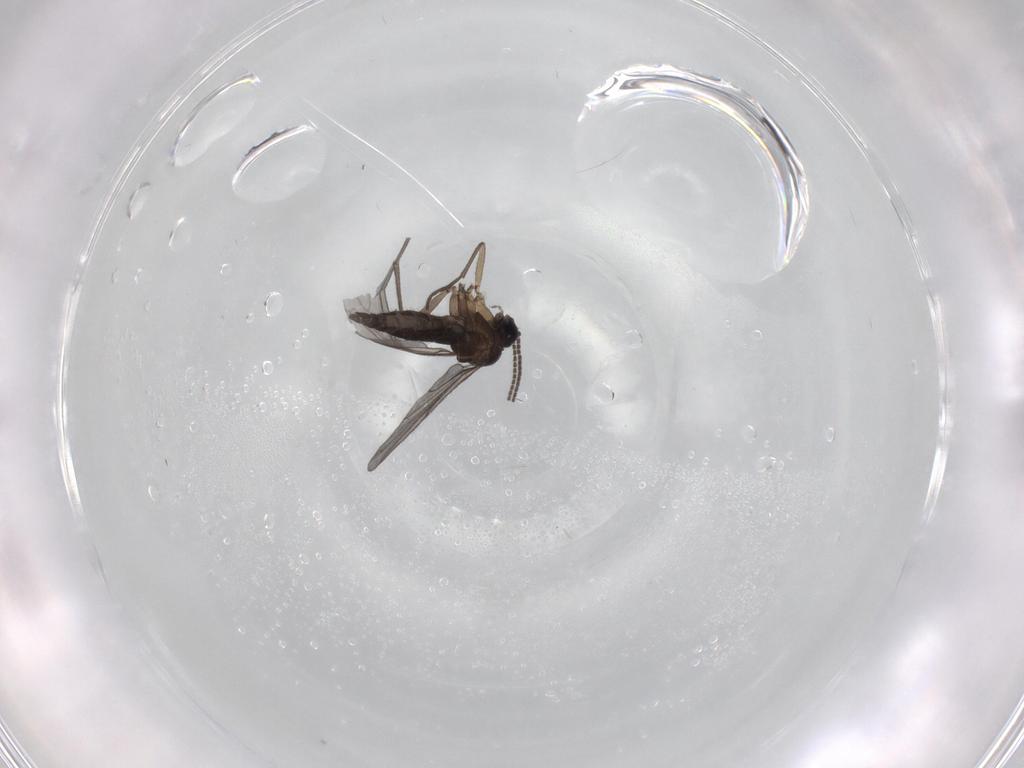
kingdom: Animalia
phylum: Arthropoda
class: Insecta
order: Diptera
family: Sciaridae
